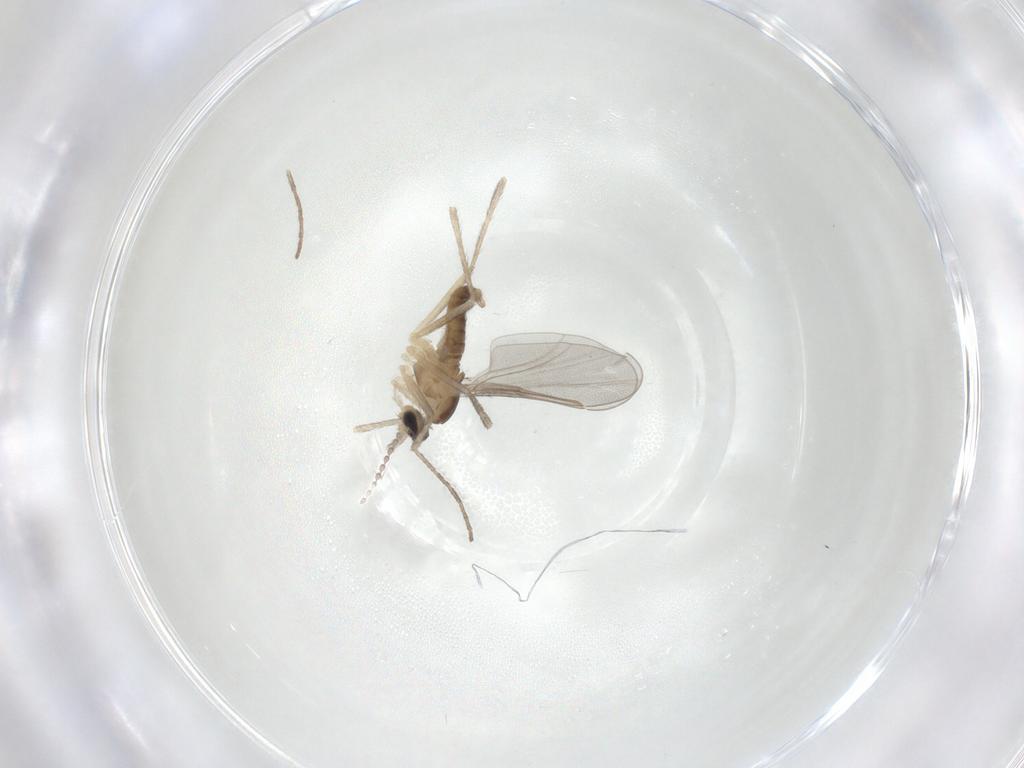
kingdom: Animalia
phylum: Arthropoda
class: Insecta
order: Diptera
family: Cecidomyiidae
